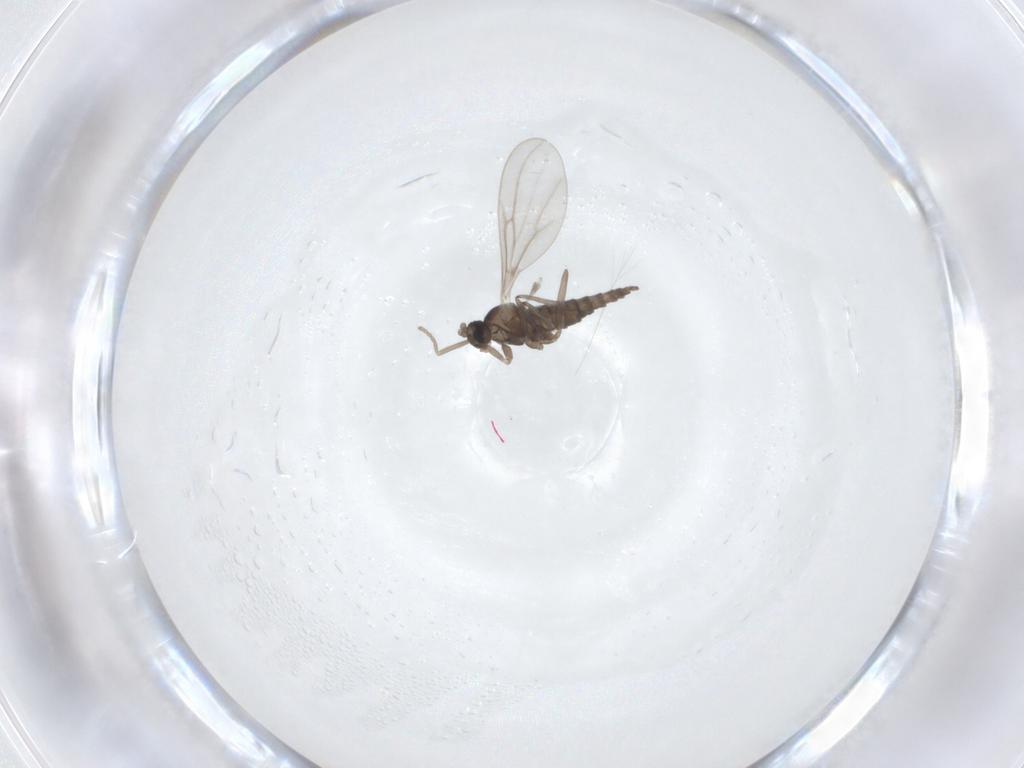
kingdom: Animalia
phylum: Arthropoda
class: Insecta
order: Diptera
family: Cecidomyiidae
